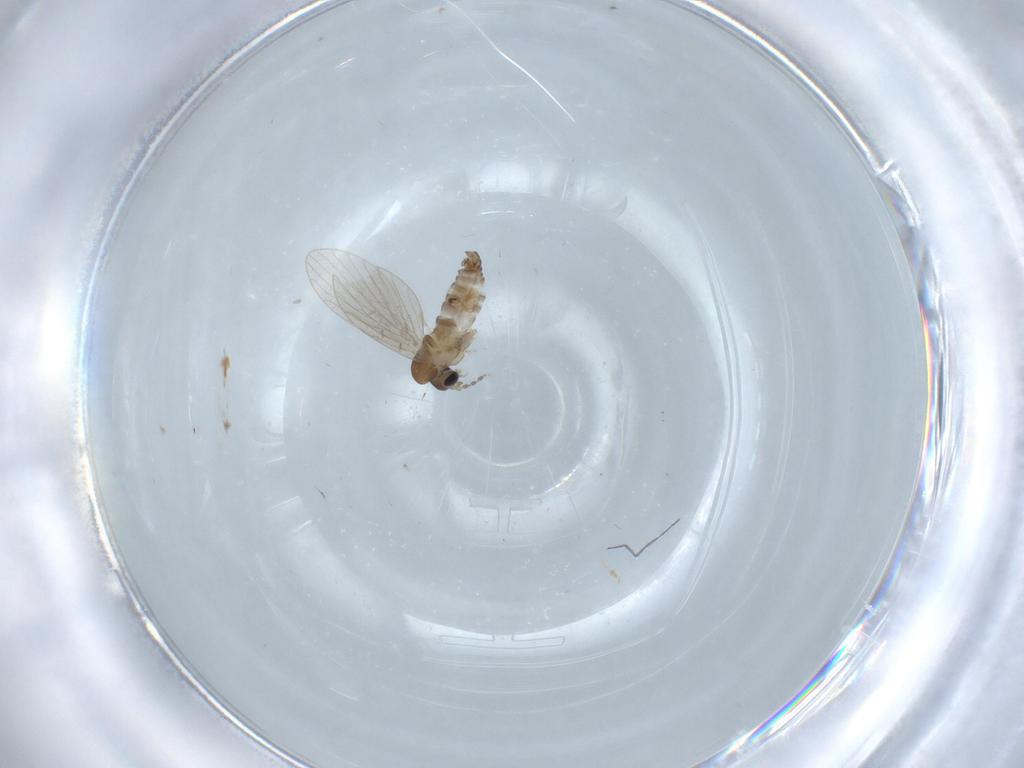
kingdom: Animalia
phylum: Arthropoda
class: Insecta
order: Diptera
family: Psychodidae
